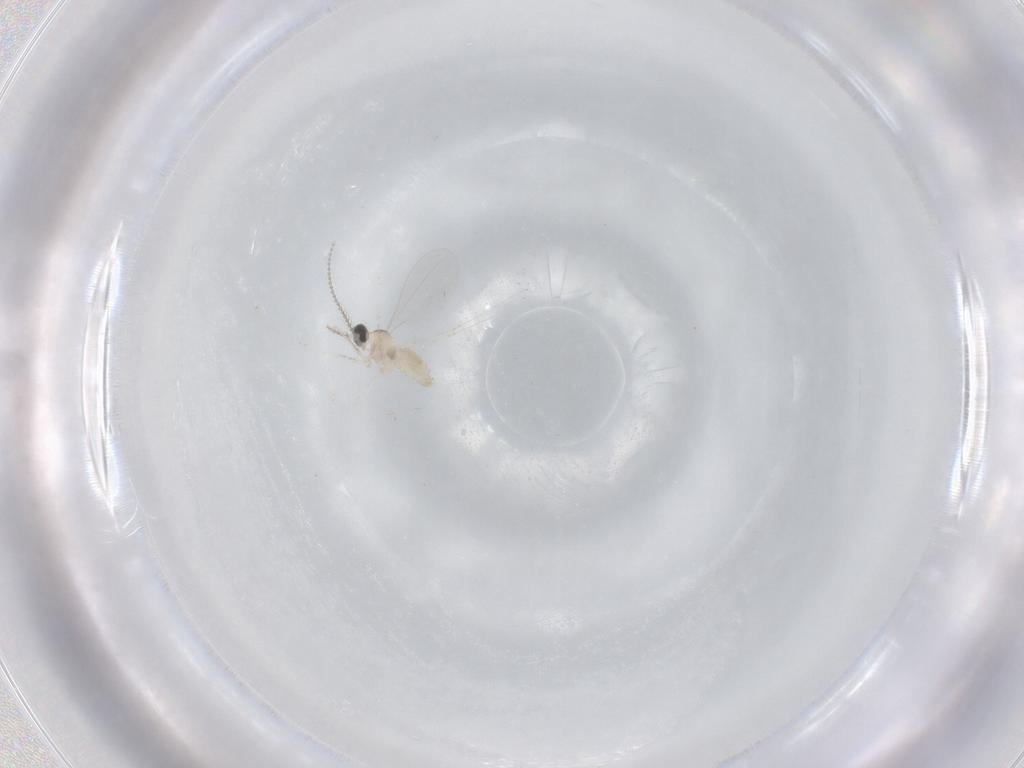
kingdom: Animalia
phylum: Arthropoda
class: Insecta
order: Diptera
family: Cecidomyiidae
